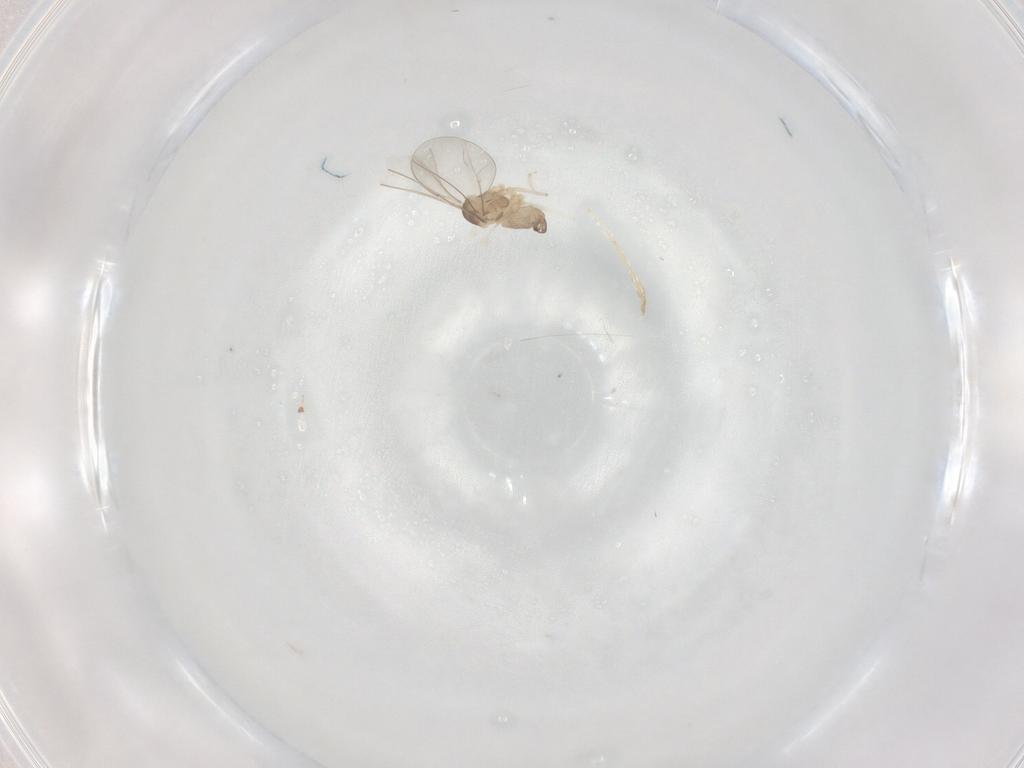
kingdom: Animalia
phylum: Arthropoda
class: Insecta
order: Diptera
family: Cecidomyiidae
